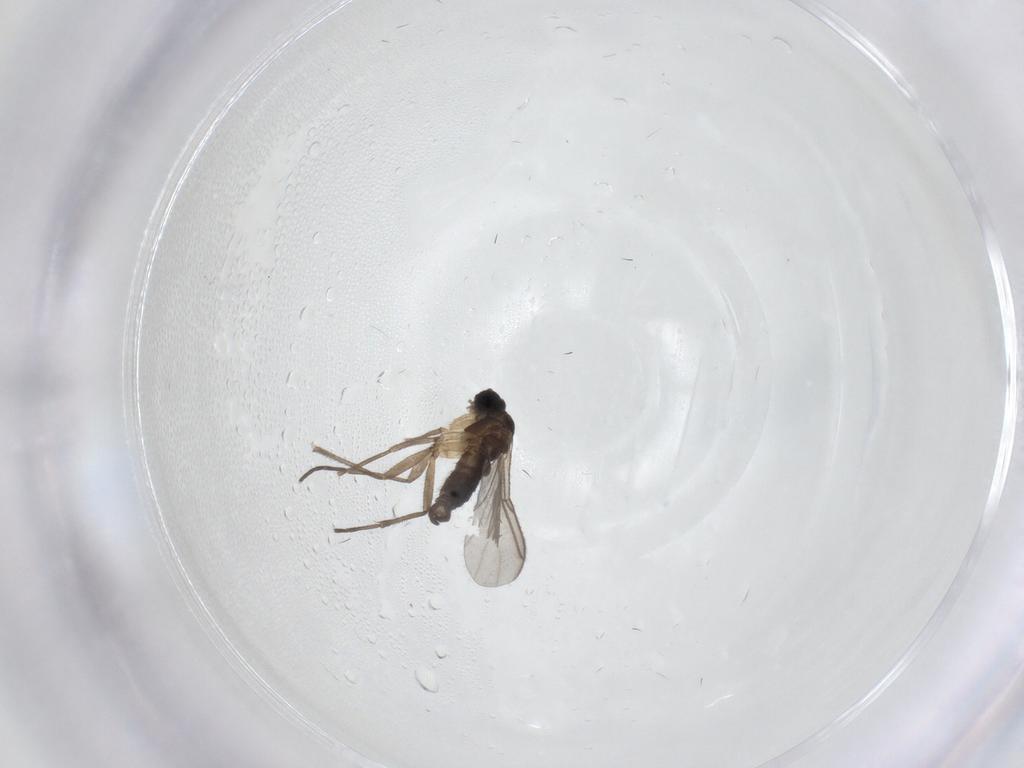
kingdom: Animalia
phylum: Arthropoda
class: Insecta
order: Diptera
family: Sciaridae
